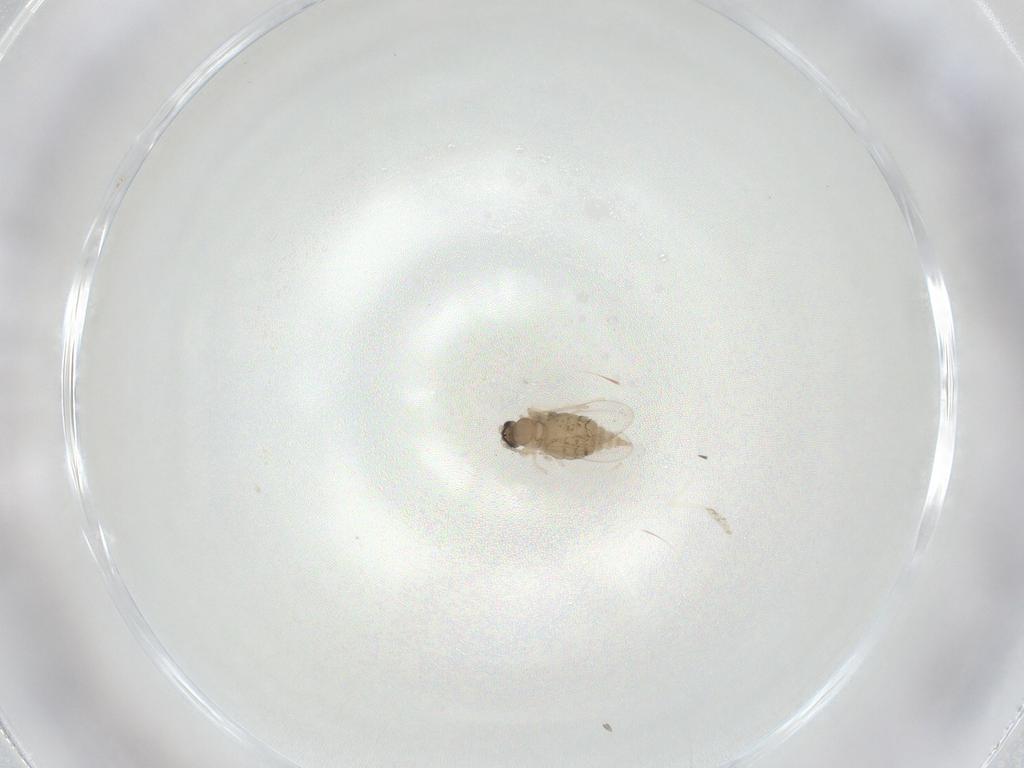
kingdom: Animalia
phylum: Arthropoda
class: Insecta
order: Diptera
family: Cecidomyiidae
